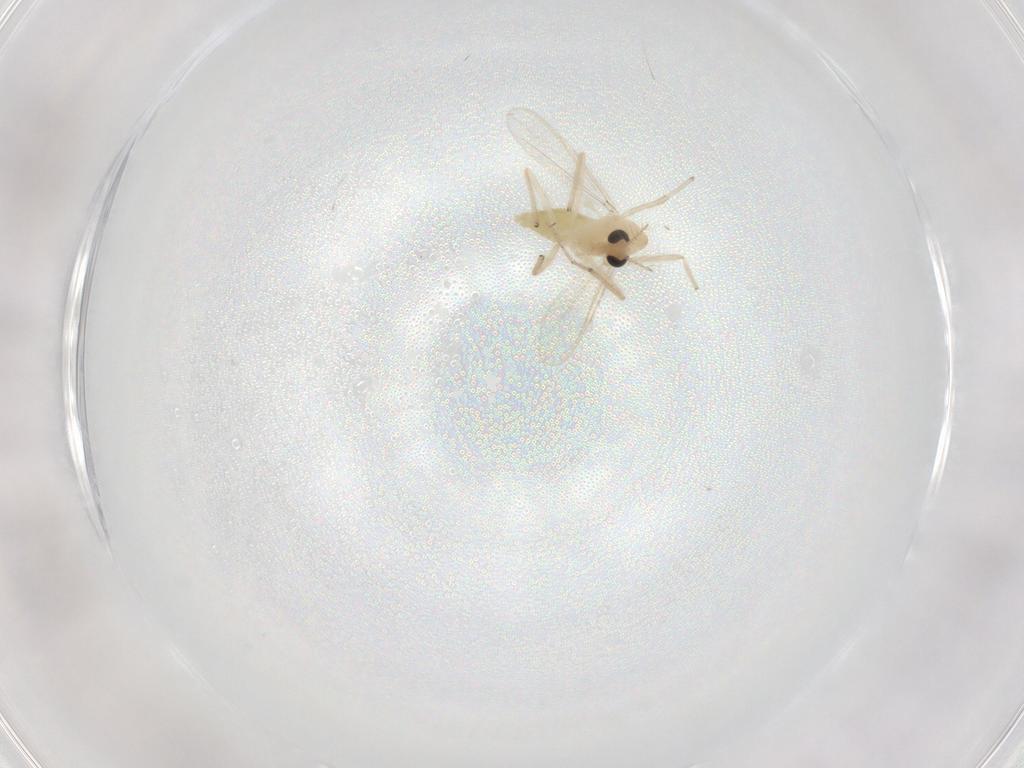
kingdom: Animalia
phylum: Arthropoda
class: Insecta
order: Diptera
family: Chironomidae
